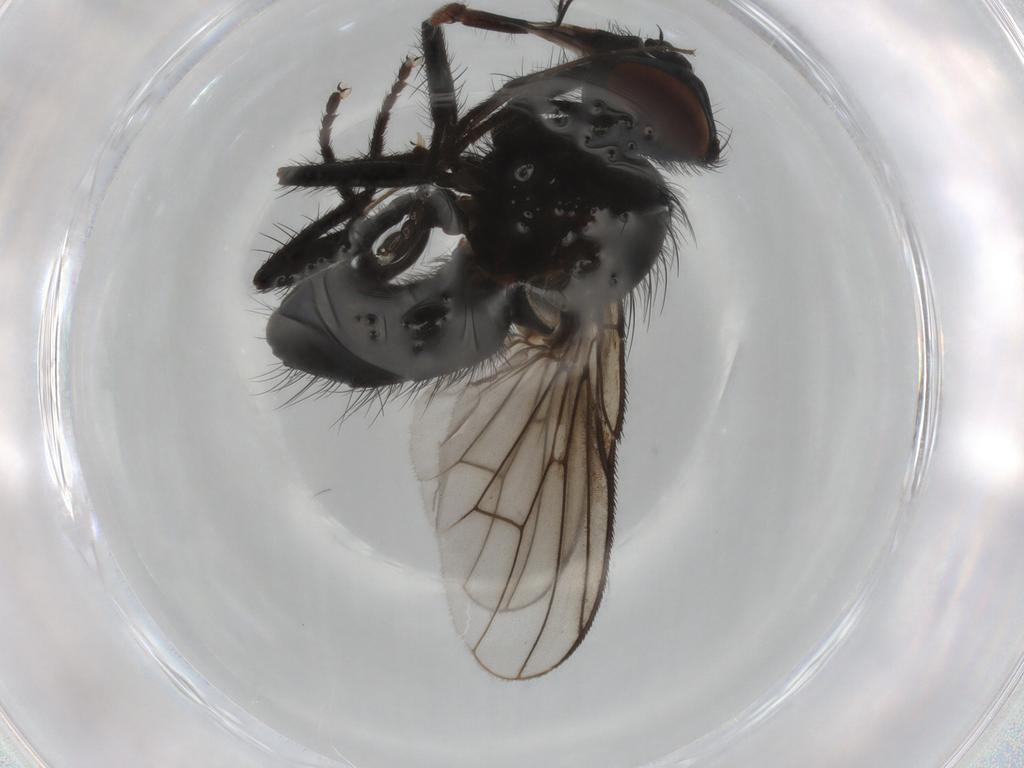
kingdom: Animalia
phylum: Arthropoda
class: Insecta
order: Diptera
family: Muscidae
